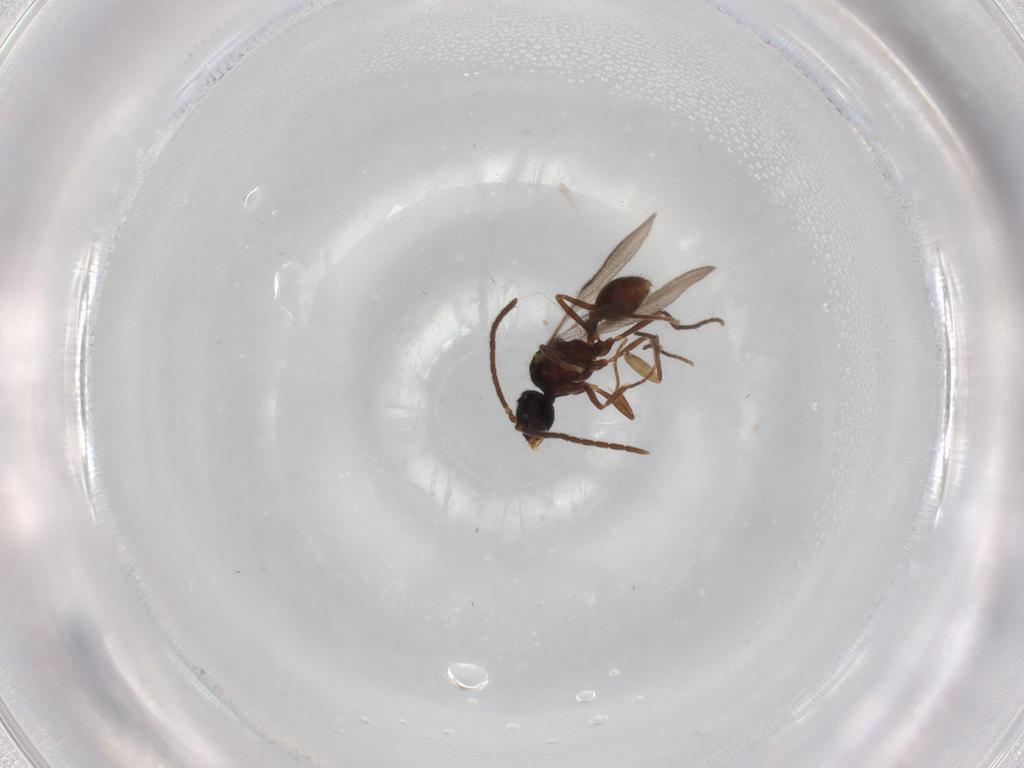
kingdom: Animalia
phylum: Arthropoda
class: Insecta
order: Hymenoptera
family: Formicidae
